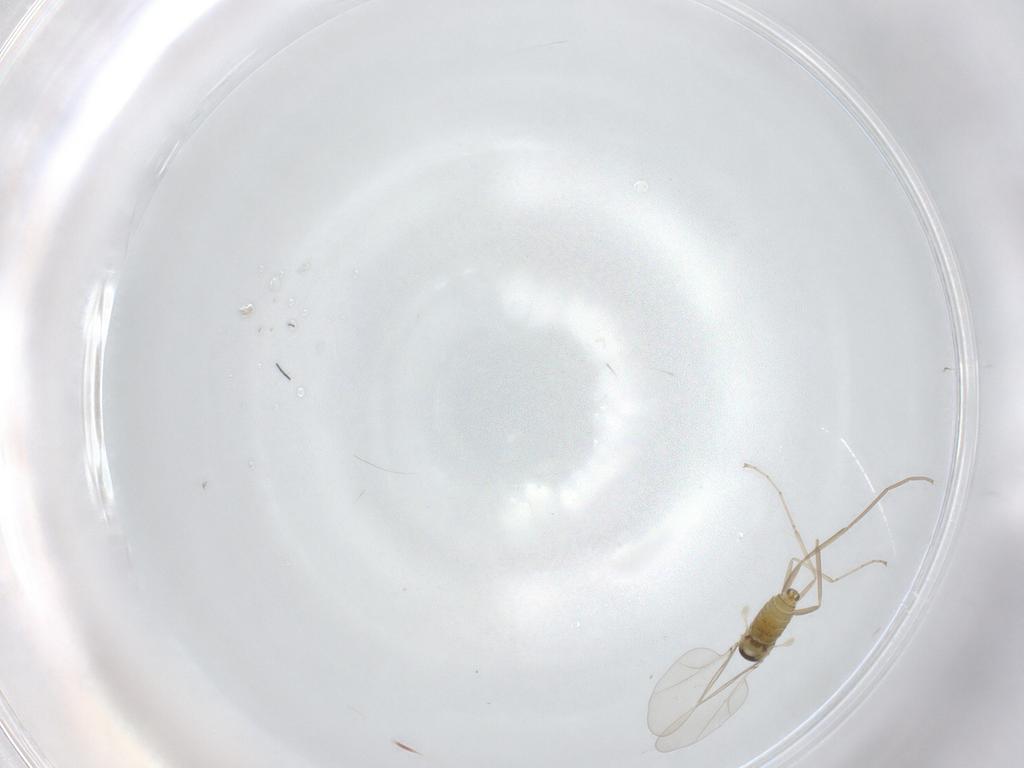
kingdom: Animalia
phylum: Arthropoda
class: Insecta
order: Diptera
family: Cecidomyiidae
